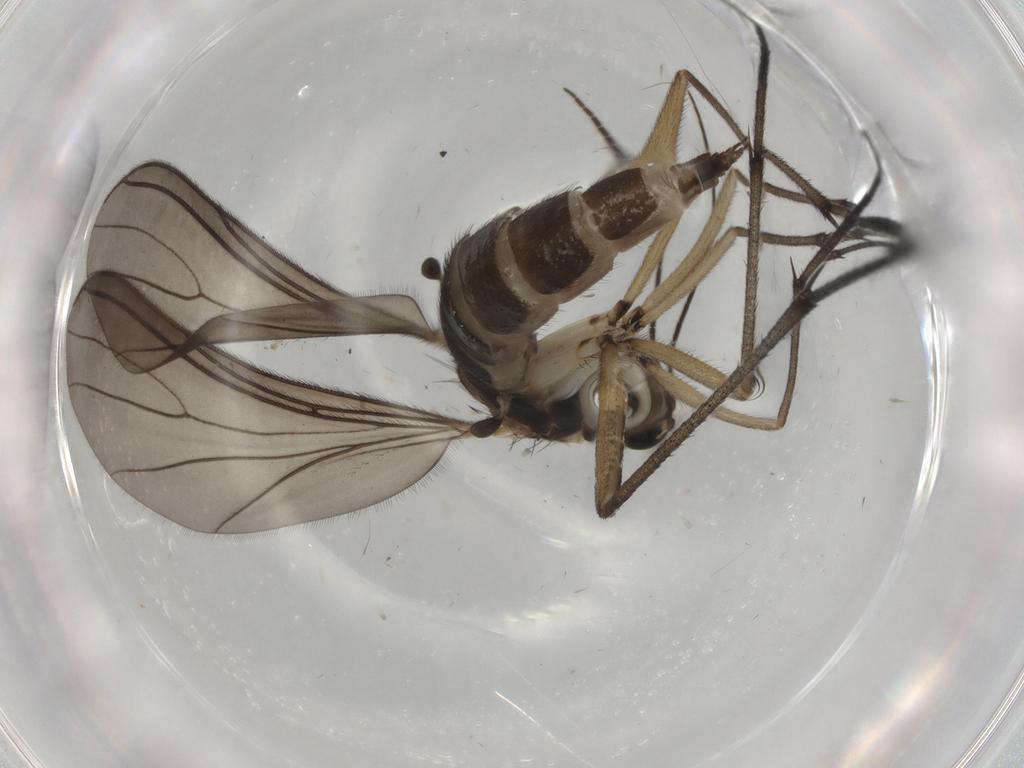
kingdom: Animalia
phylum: Arthropoda
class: Insecta
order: Diptera
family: Sciaridae
